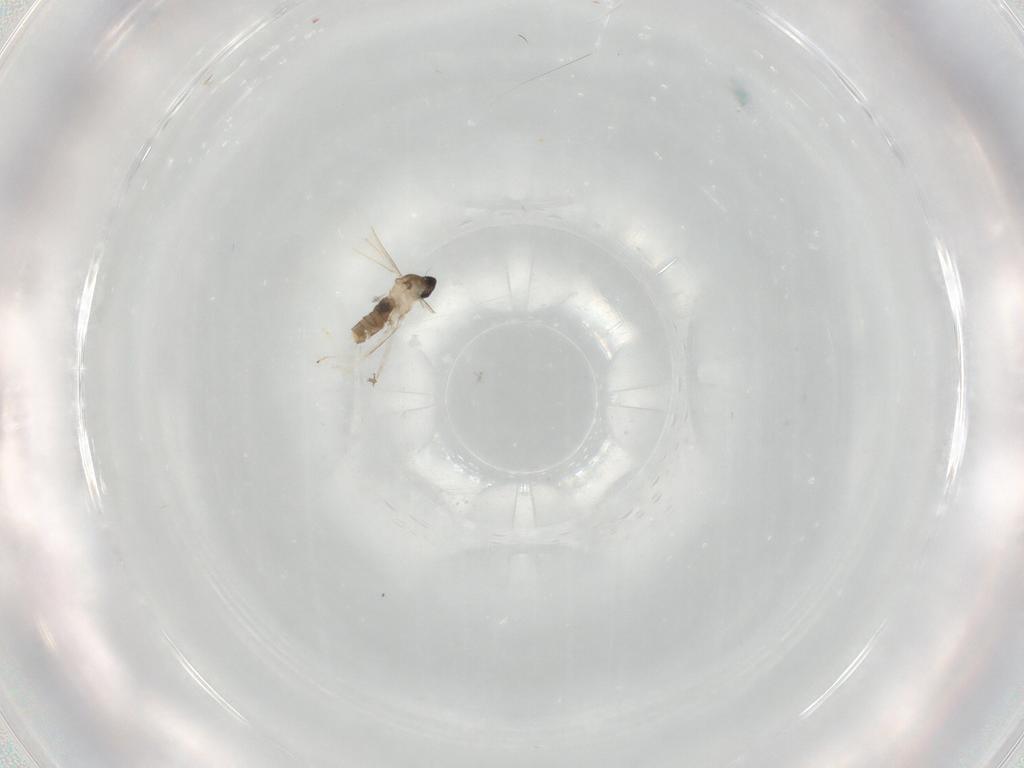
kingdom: Animalia
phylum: Arthropoda
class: Insecta
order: Diptera
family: Cecidomyiidae
